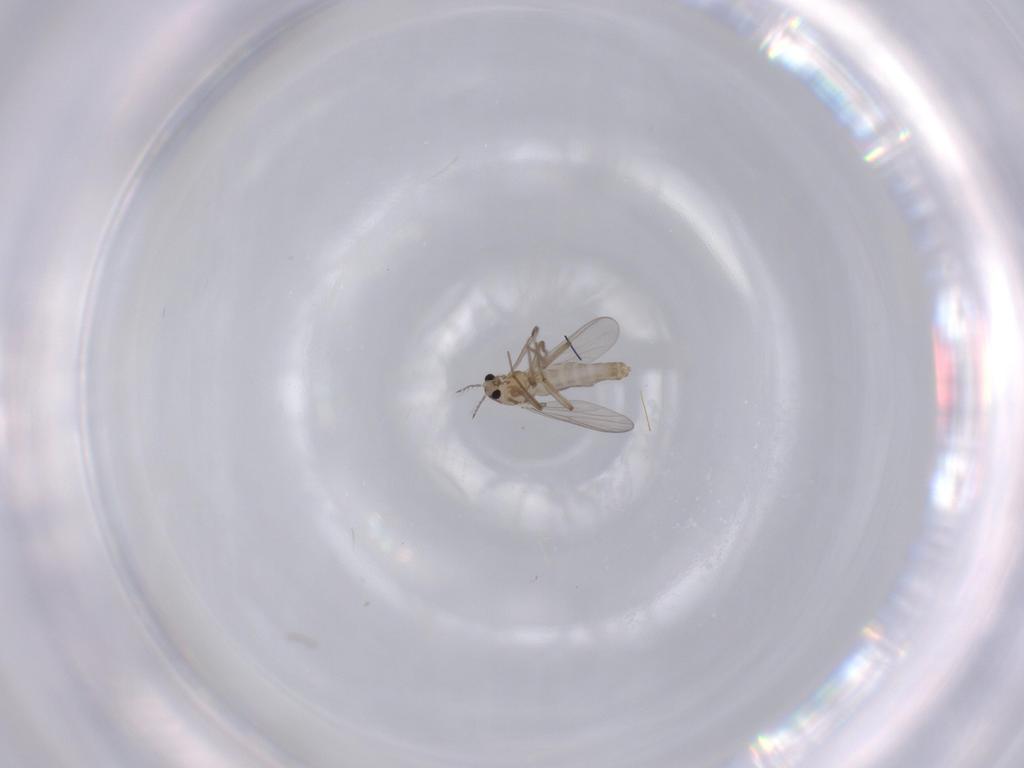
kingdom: Animalia
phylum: Arthropoda
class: Insecta
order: Diptera
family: Chironomidae
